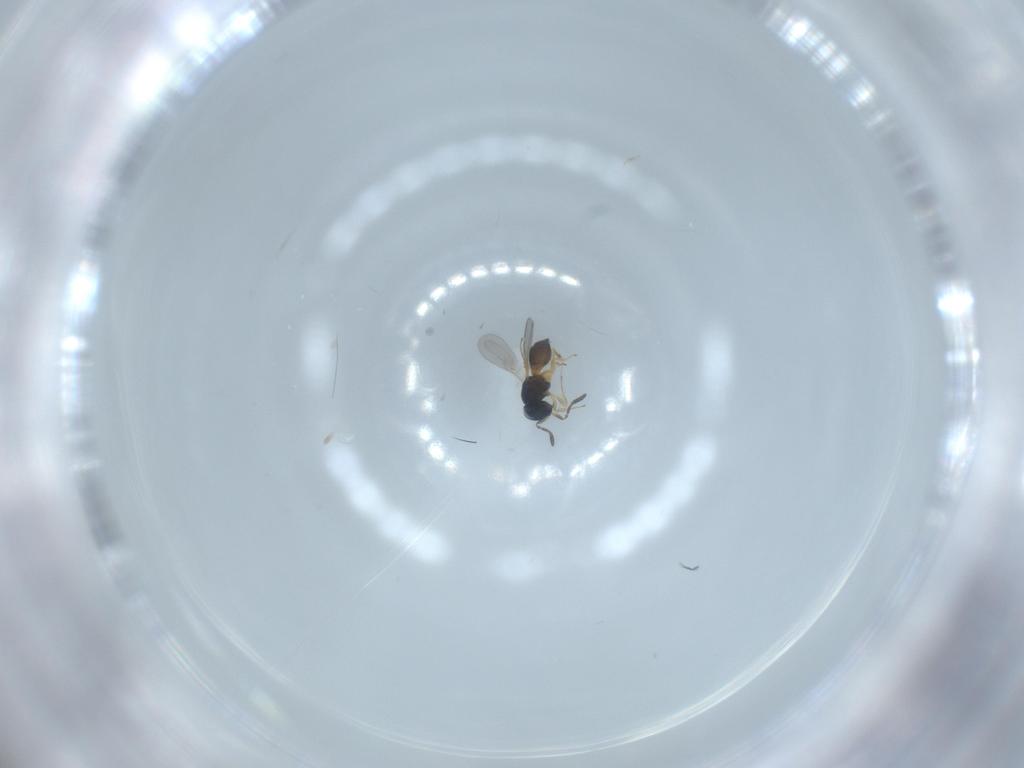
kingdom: Animalia
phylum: Arthropoda
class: Insecta
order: Hymenoptera
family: Scelionidae
